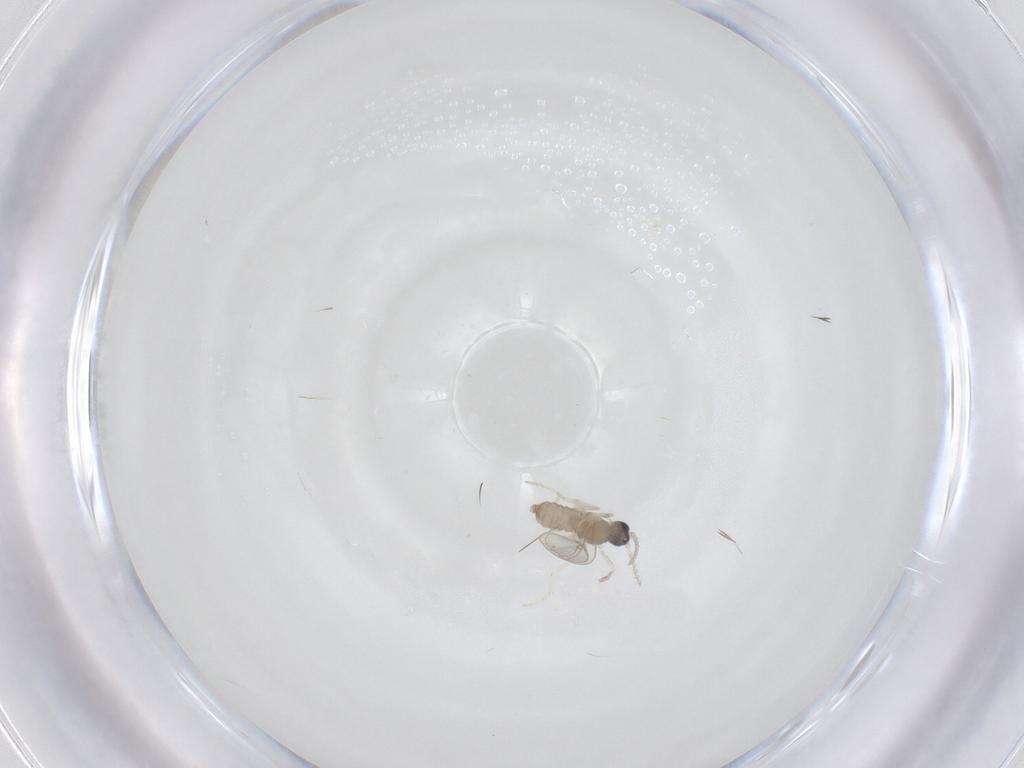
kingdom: Animalia
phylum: Arthropoda
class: Insecta
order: Diptera
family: Cecidomyiidae
